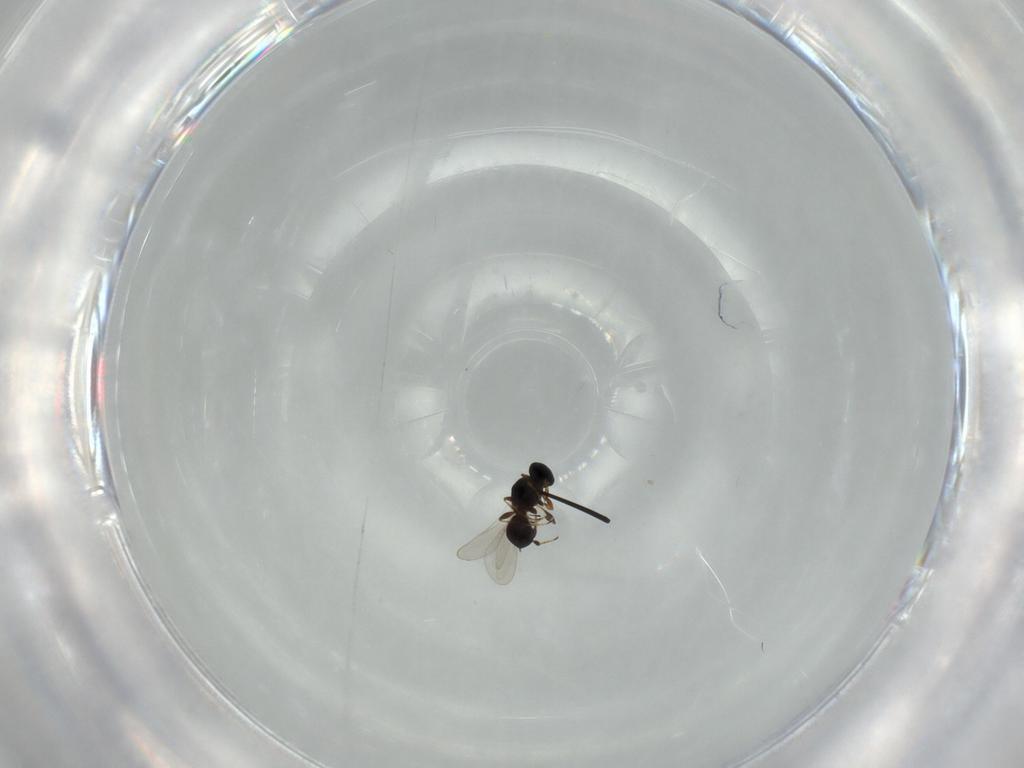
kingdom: Animalia
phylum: Arthropoda
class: Insecta
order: Hymenoptera
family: Platygastridae
